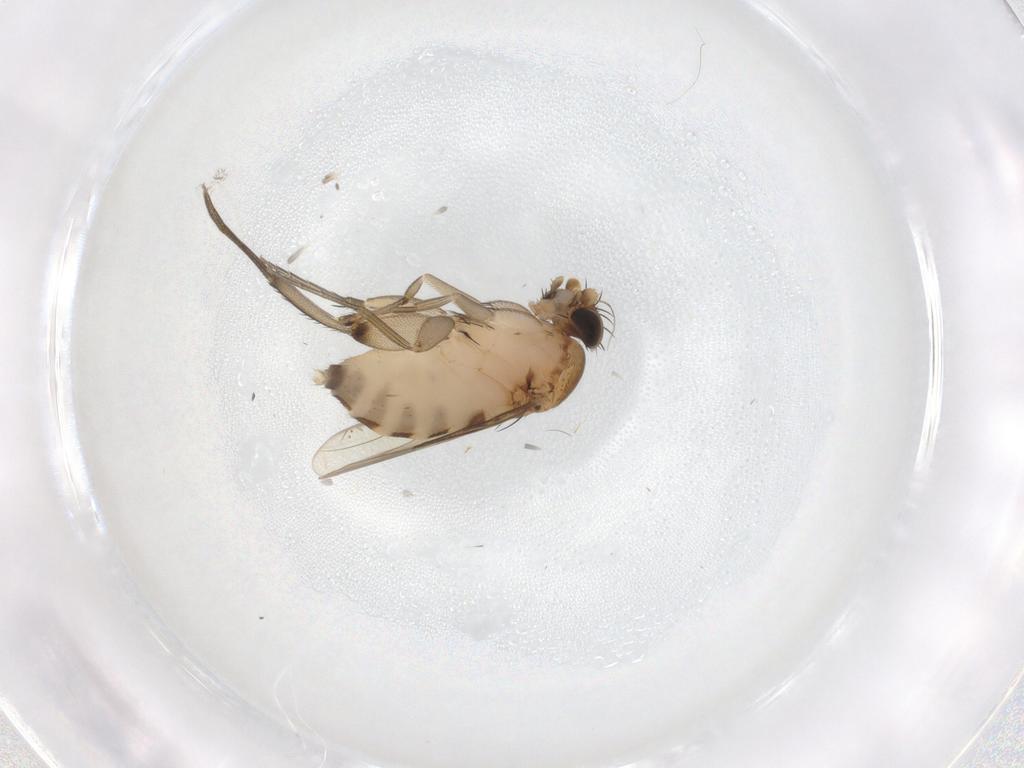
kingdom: Animalia
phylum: Arthropoda
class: Insecta
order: Diptera
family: Phoridae
